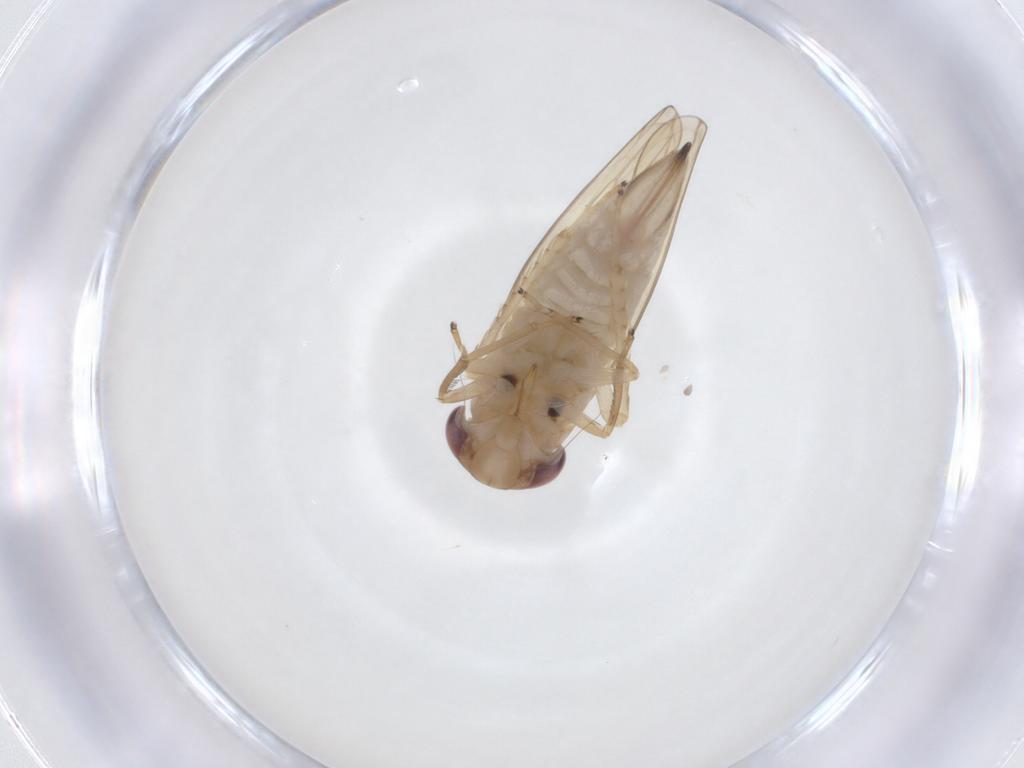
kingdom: Animalia
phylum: Arthropoda
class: Insecta
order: Hemiptera
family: Cicadellidae
